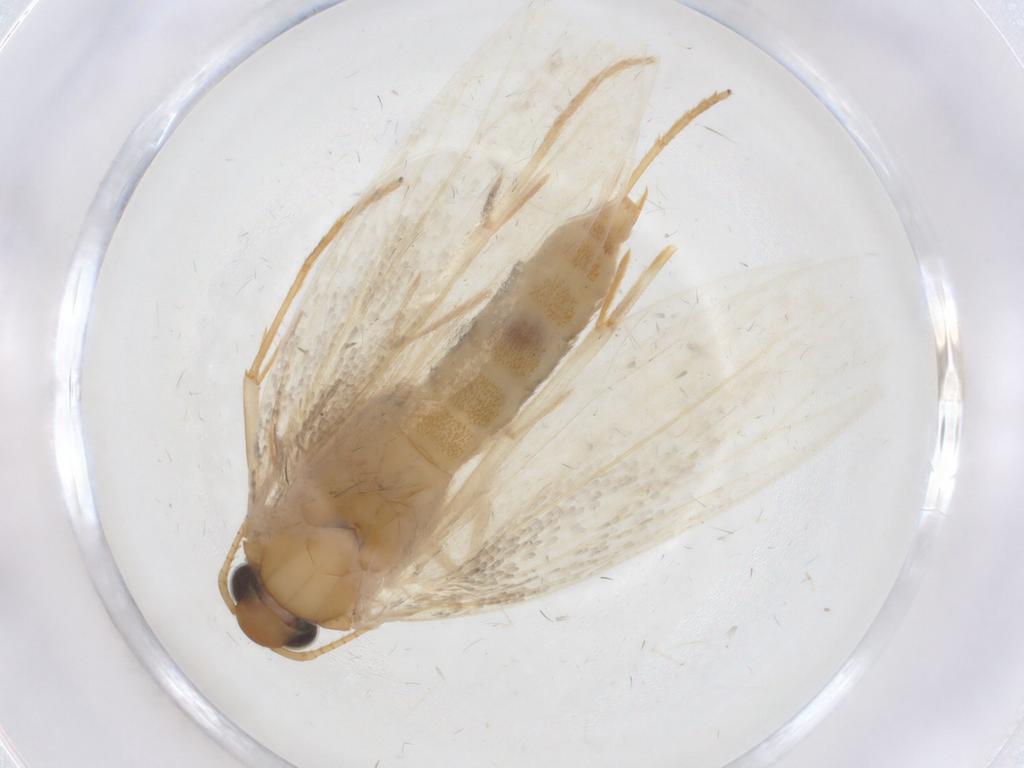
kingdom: Animalia
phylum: Arthropoda
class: Insecta
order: Lepidoptera
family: Oecophoridae
